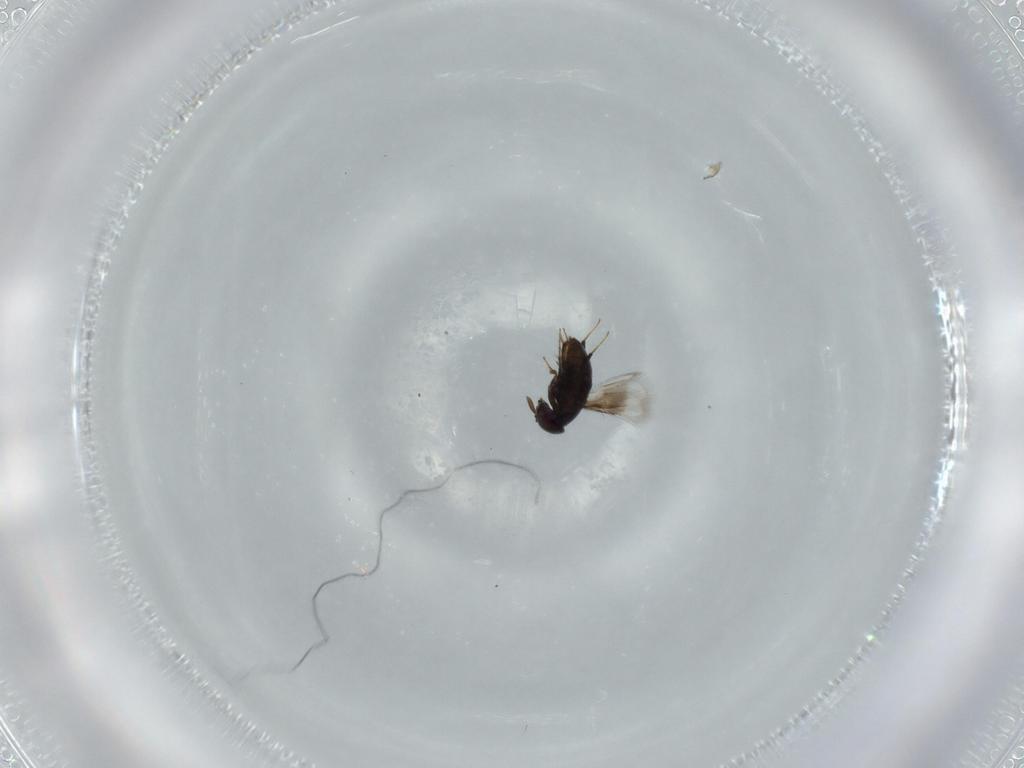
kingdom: Animalia
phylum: Arthropoda
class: Insecta
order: Hymenoptera
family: Signiphoridae
